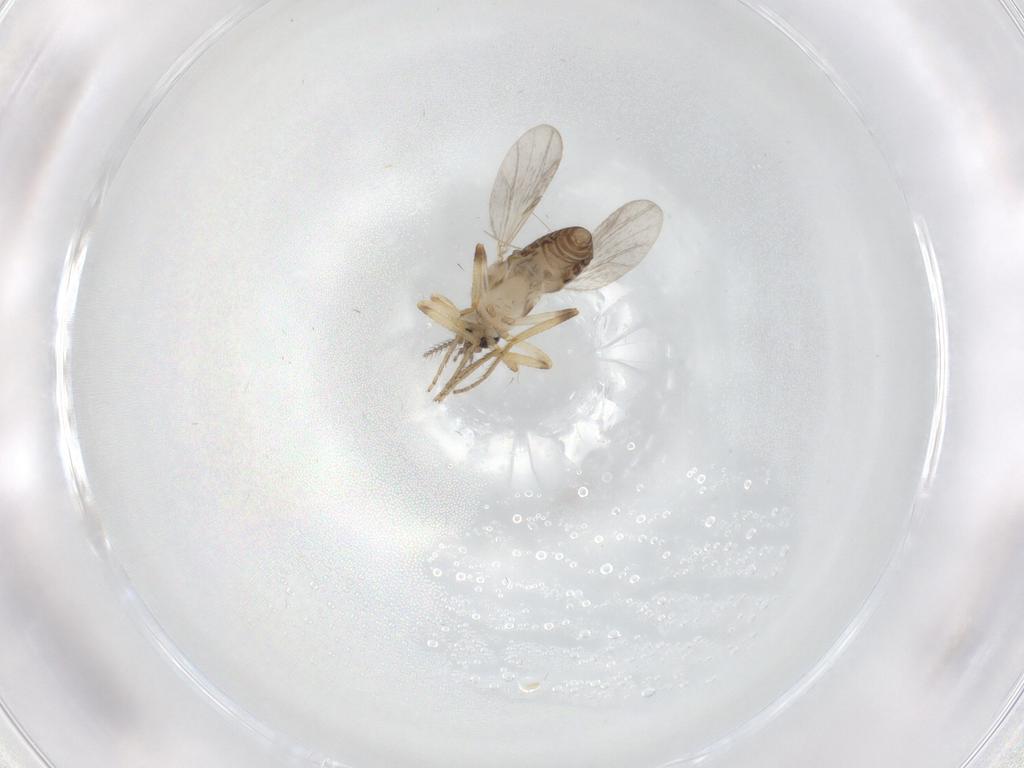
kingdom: Animalia
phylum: Arthropoda
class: Insecta
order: Diptera
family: Ceratopogonidae
